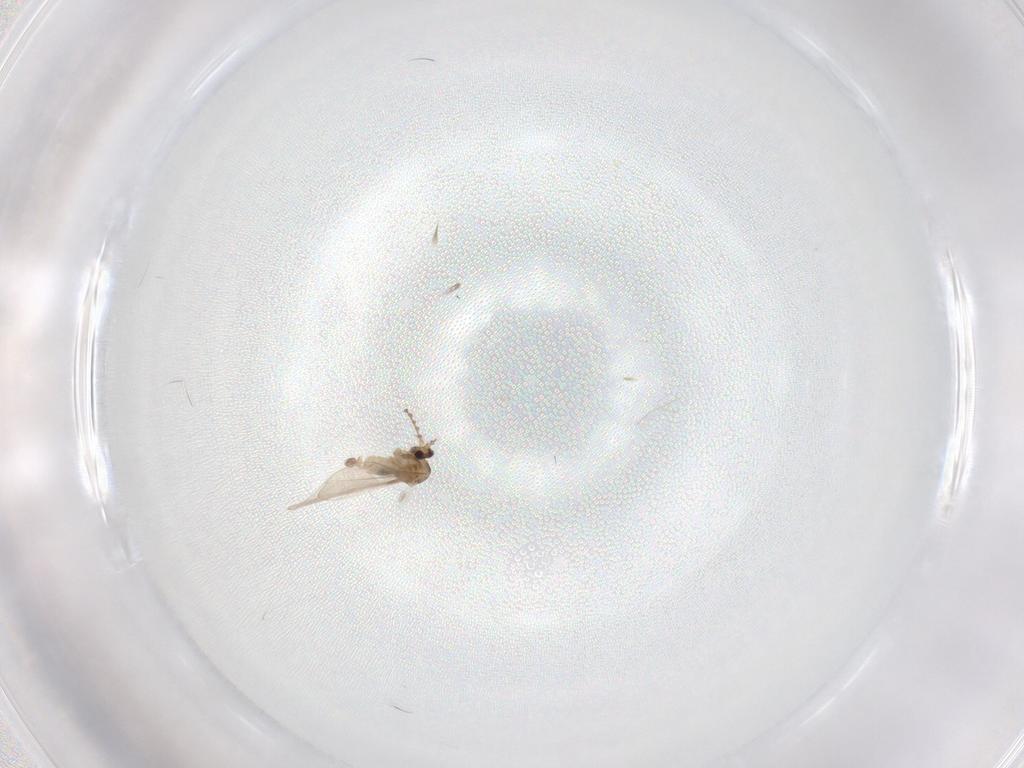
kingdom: Animalia
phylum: Arthropoda
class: Insecta
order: Diptera
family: Cecidomyiidae
